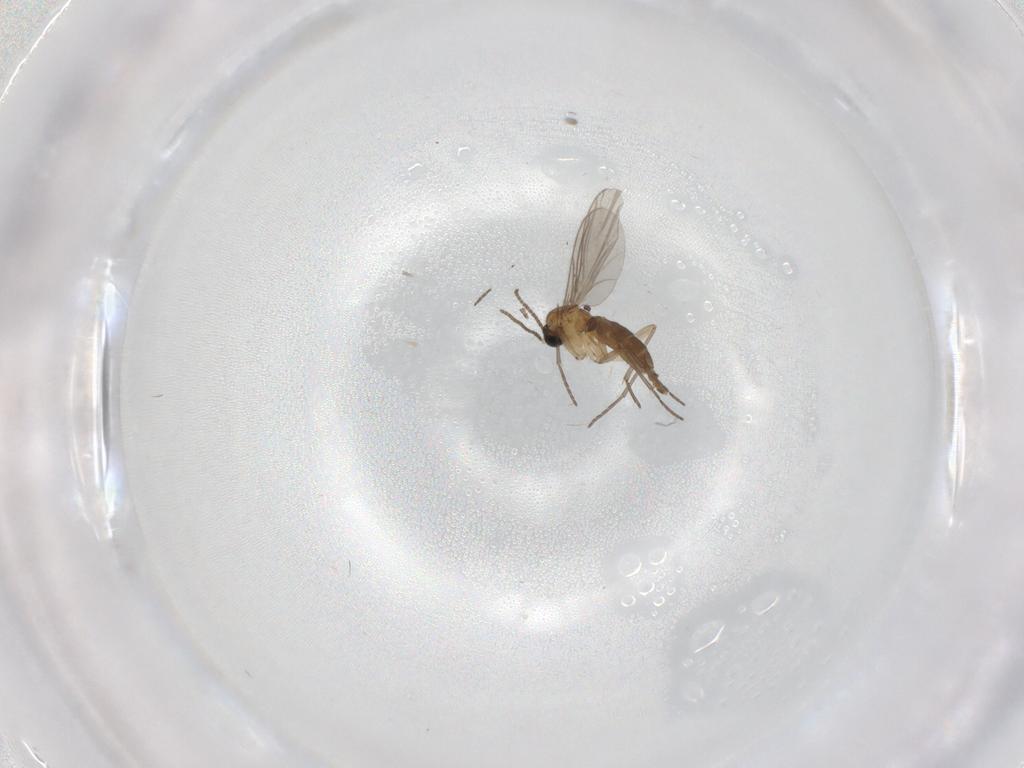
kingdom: Animalia
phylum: Arthropoda
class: Insecta
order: Diptera
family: Sciaridae
